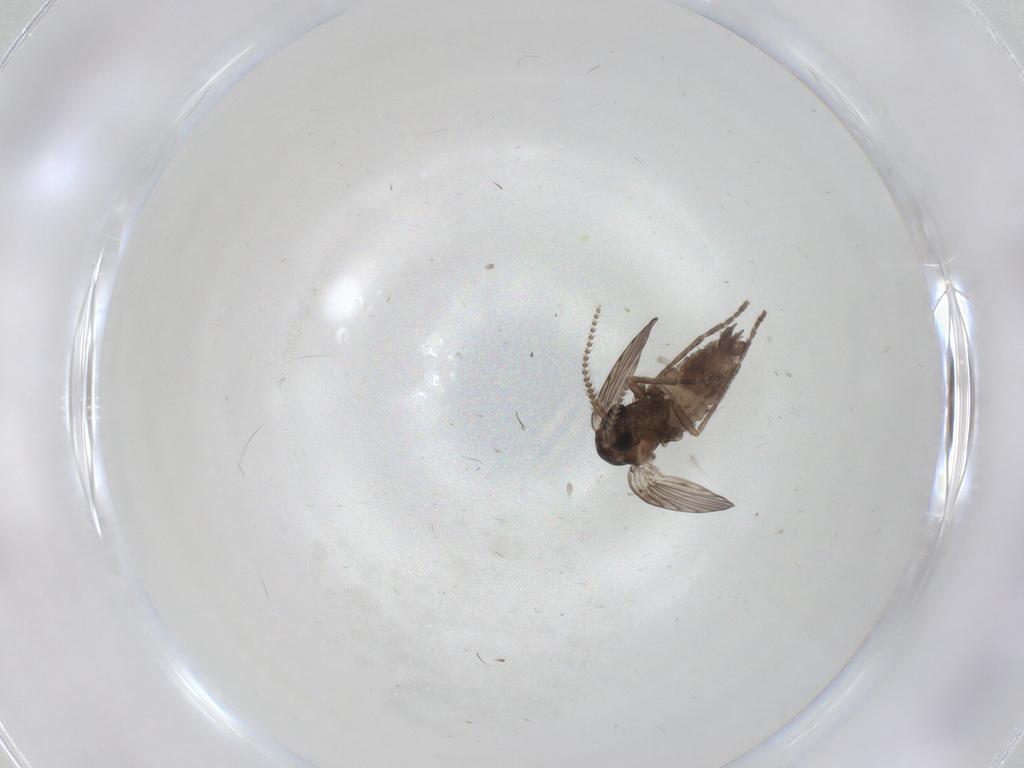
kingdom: Animalia
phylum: Arthropoda
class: Insecta
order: Diptera
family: Psychodidae
